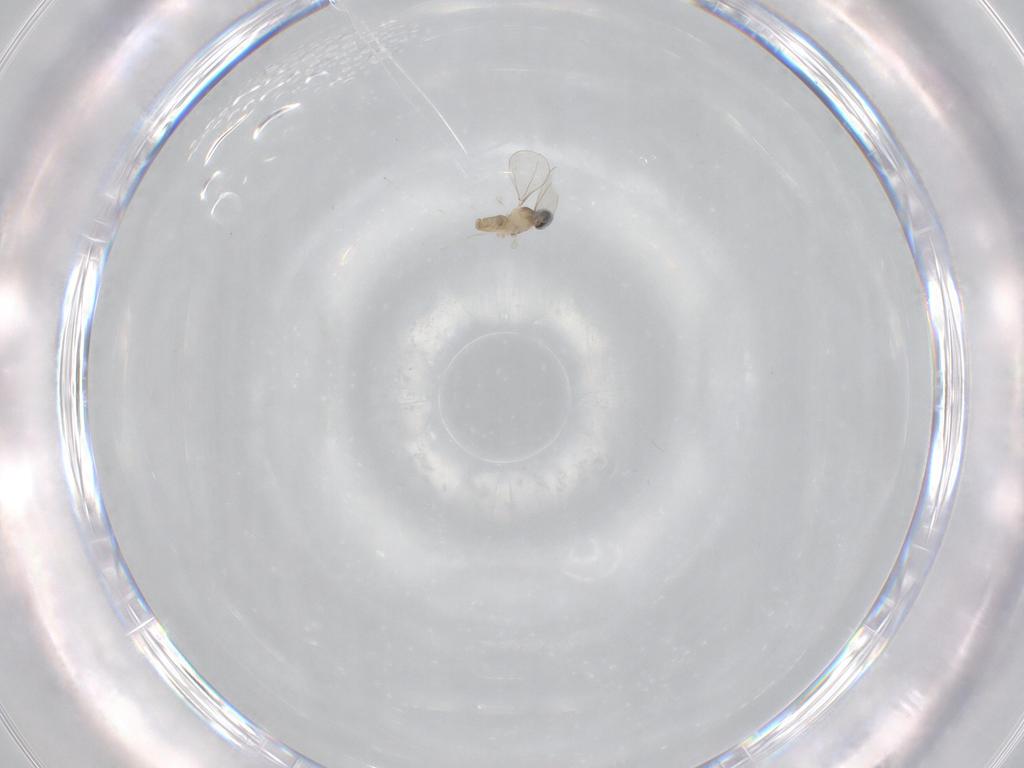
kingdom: Animalia
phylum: Arthropoda
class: Insecta
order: Diptera
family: Cecidomyiidae
